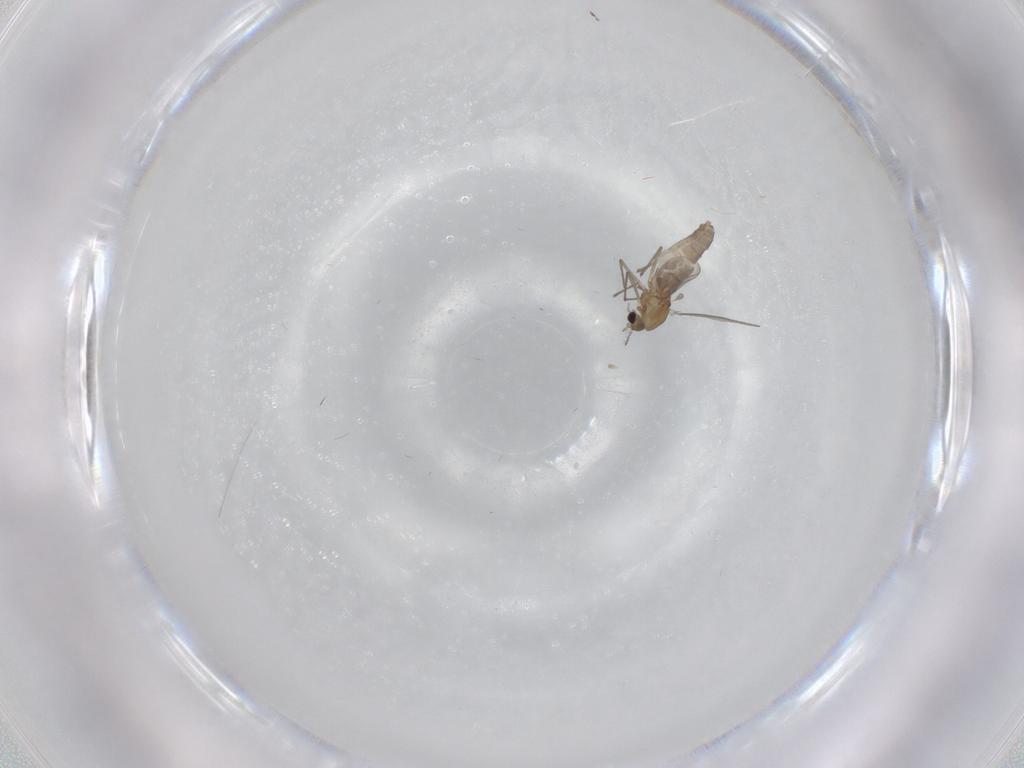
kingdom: Animalia
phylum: Arthropoda
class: Insecta
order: Diptera
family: Chironomidae
